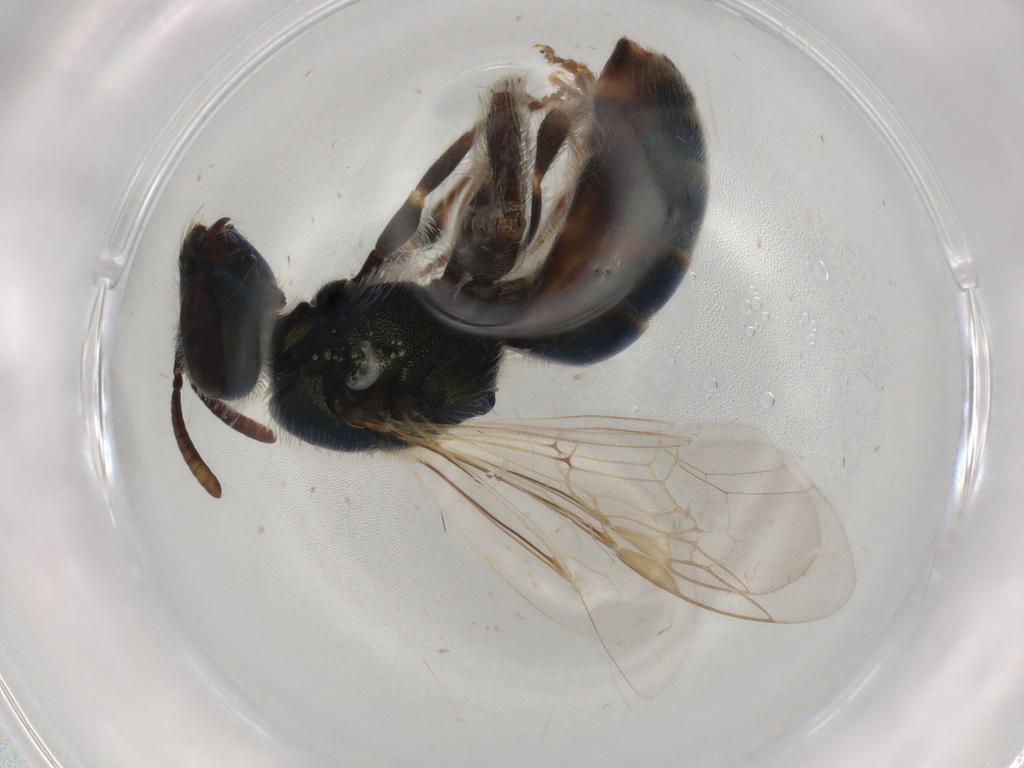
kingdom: Animalia
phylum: Arthropoda
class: Insecta
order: Hymenoptera
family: Halictidae
